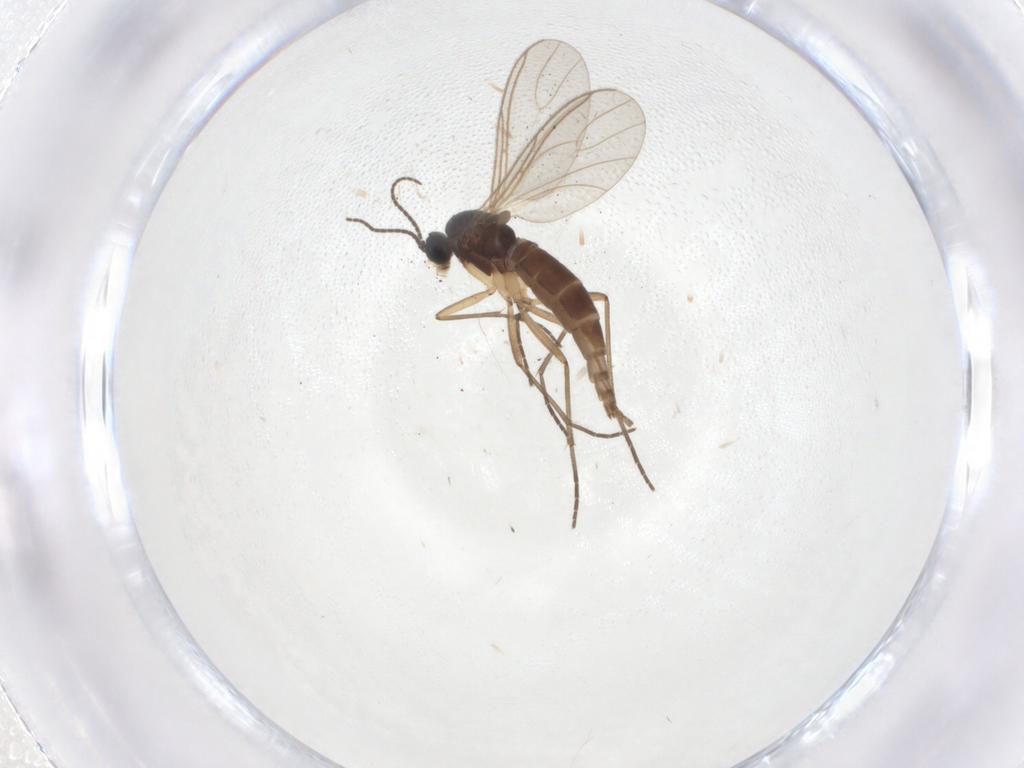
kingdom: Animalia
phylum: Arthropoda
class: Insecta
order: Diptera
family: Sciaridae
